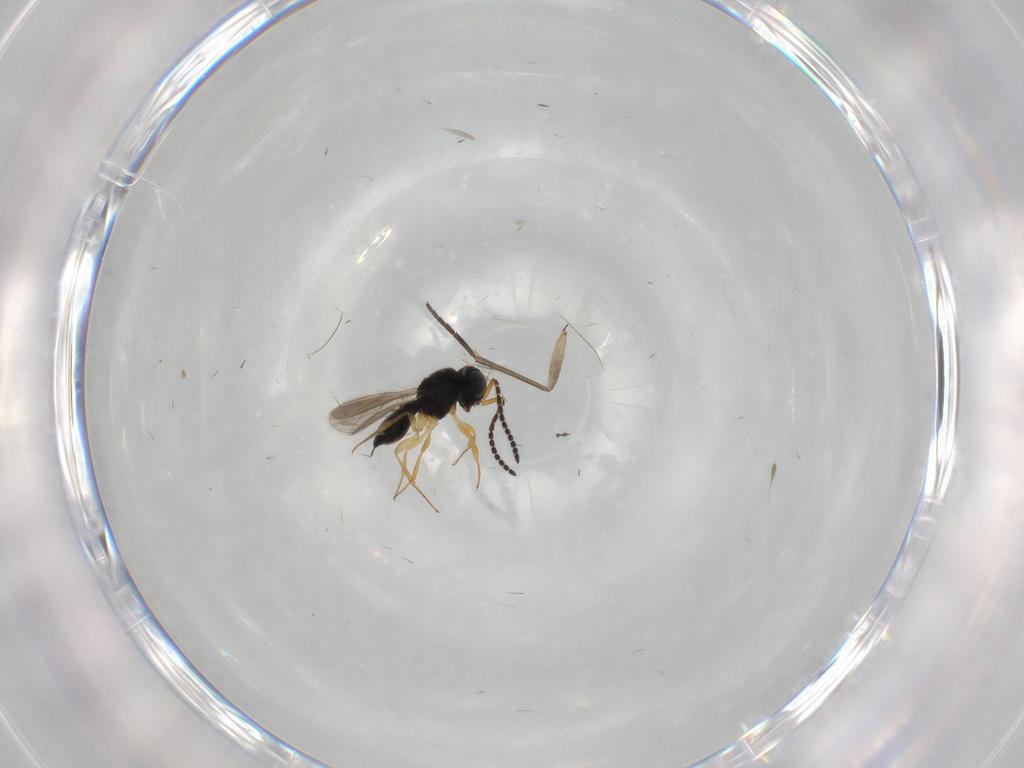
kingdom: Animalia
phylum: Arthropoda
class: Insecta
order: Hymenoptera
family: Scelionidae
